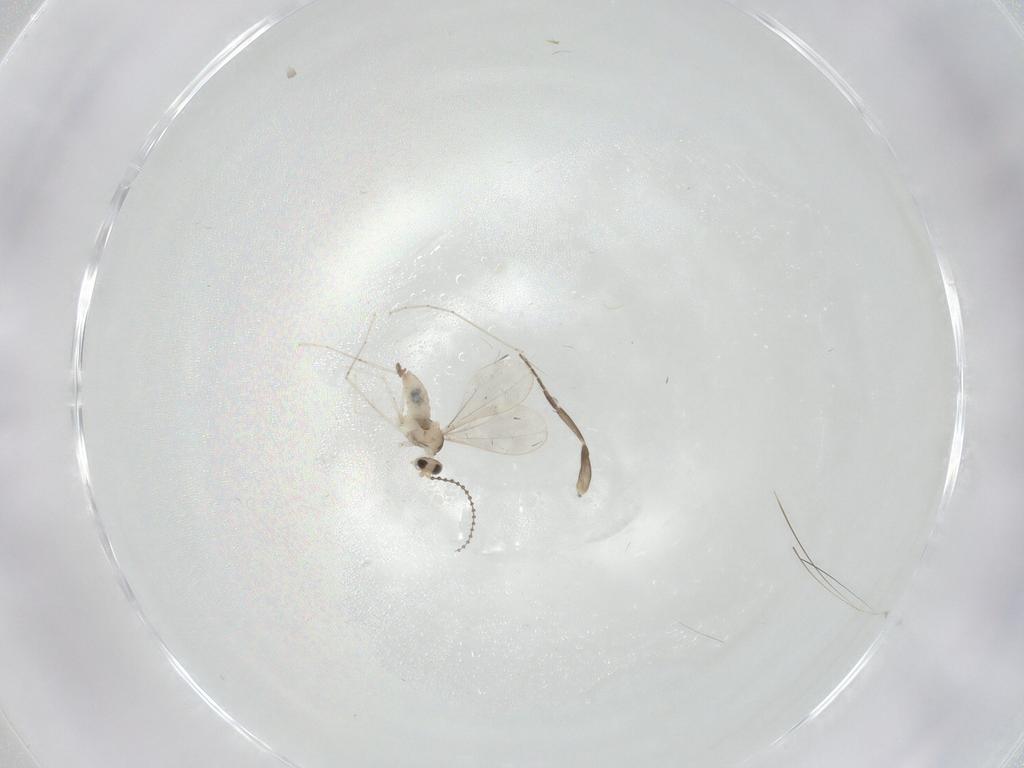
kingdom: Animalia
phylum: Arthropoda
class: Insecta
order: Diptera
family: Cecidomyiidae
